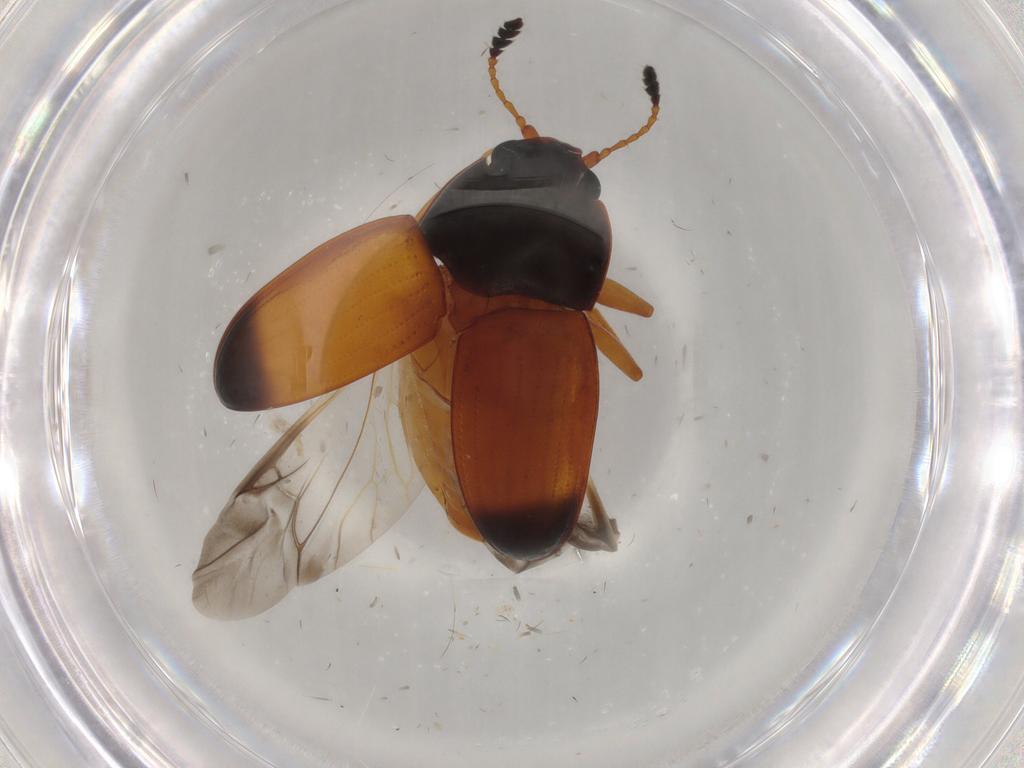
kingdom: Animalia
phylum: Arthropoda
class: Insecta
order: Coleoptera
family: Erotylidae
